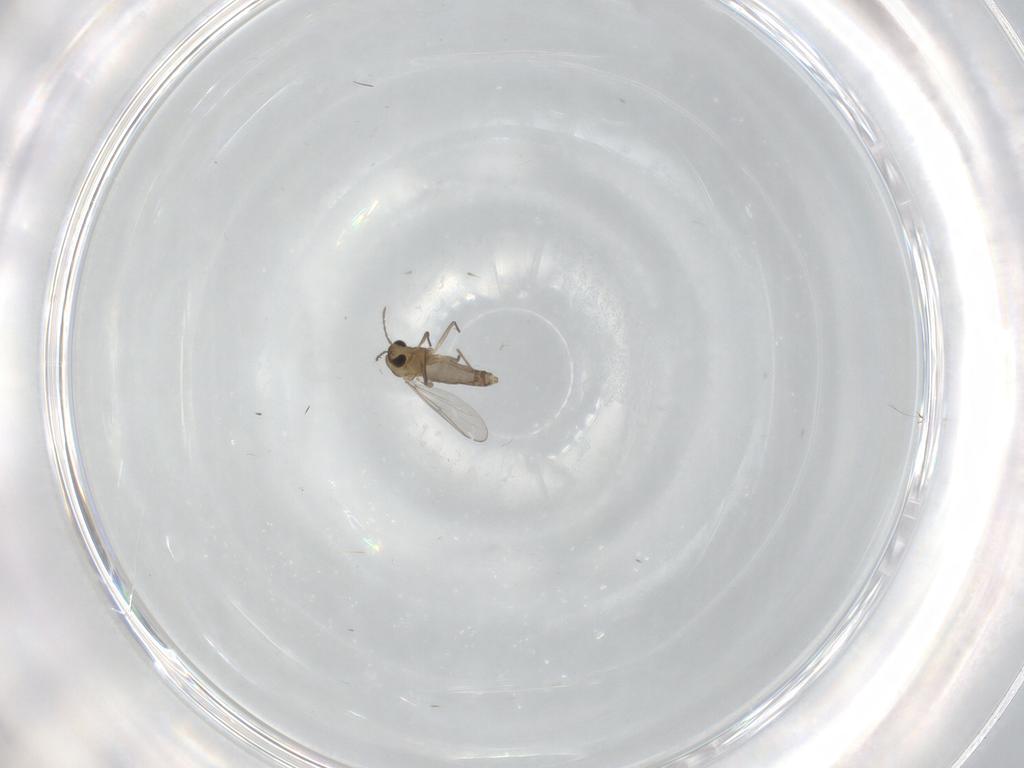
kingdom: Animalia
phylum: Arthropoda
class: Insecta
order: Diptera
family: Chironomidae
